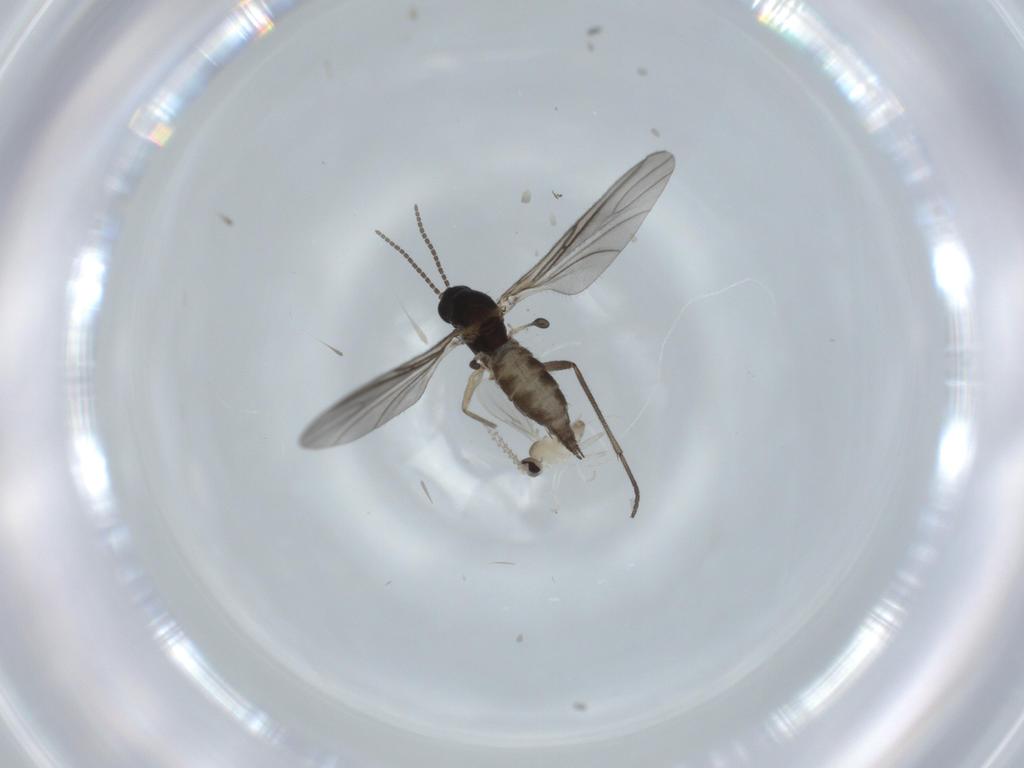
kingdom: Animalia
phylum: Arthropoda
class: Insecta
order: Diptera
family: Sciaridae
